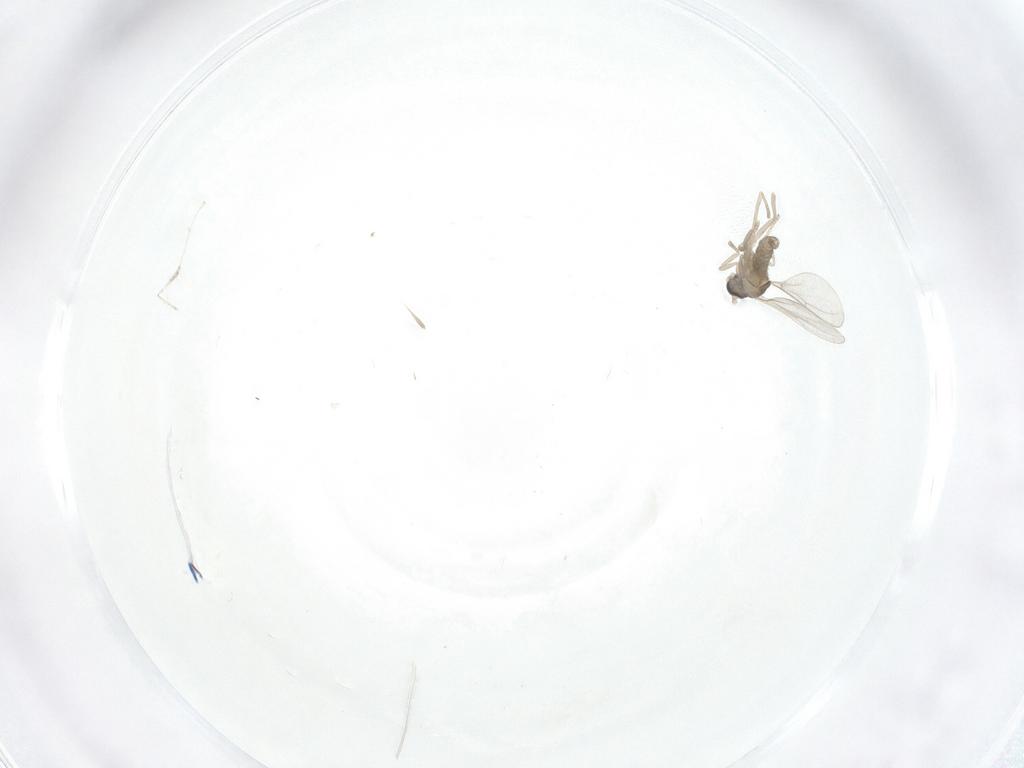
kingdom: Animalia
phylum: Arthropoda
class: Insecta
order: Diptera
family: Cecidomyiidae
